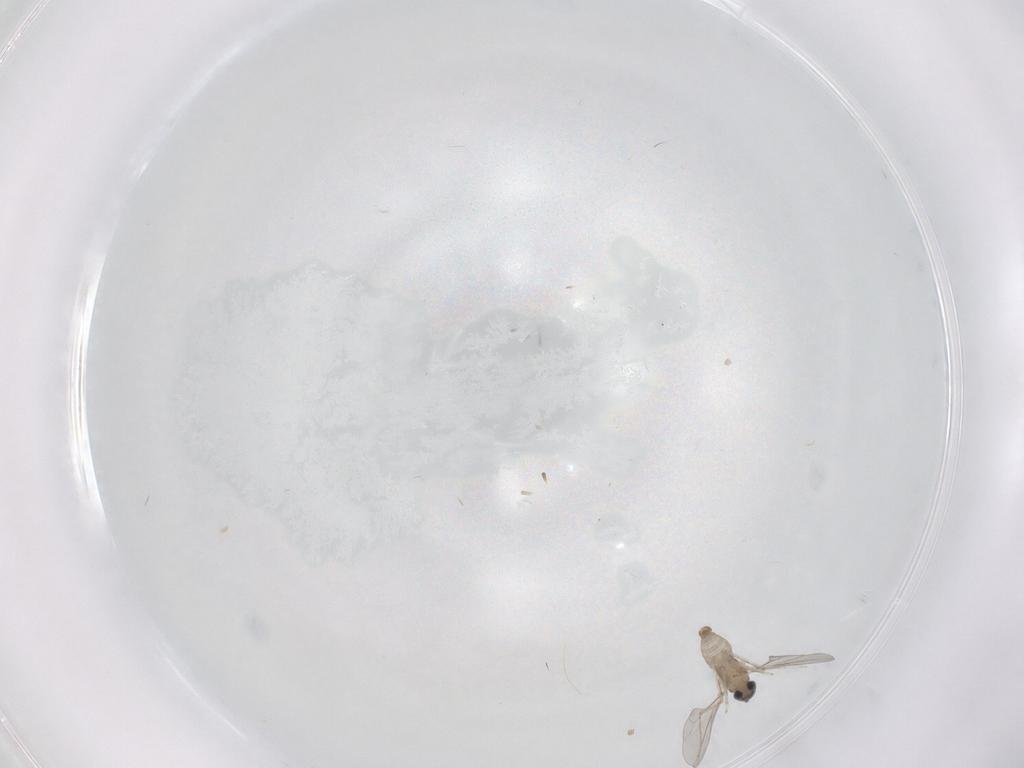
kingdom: Animalia
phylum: Arthropoda
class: Insecta
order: Diptera
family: Cecidomyiidae
